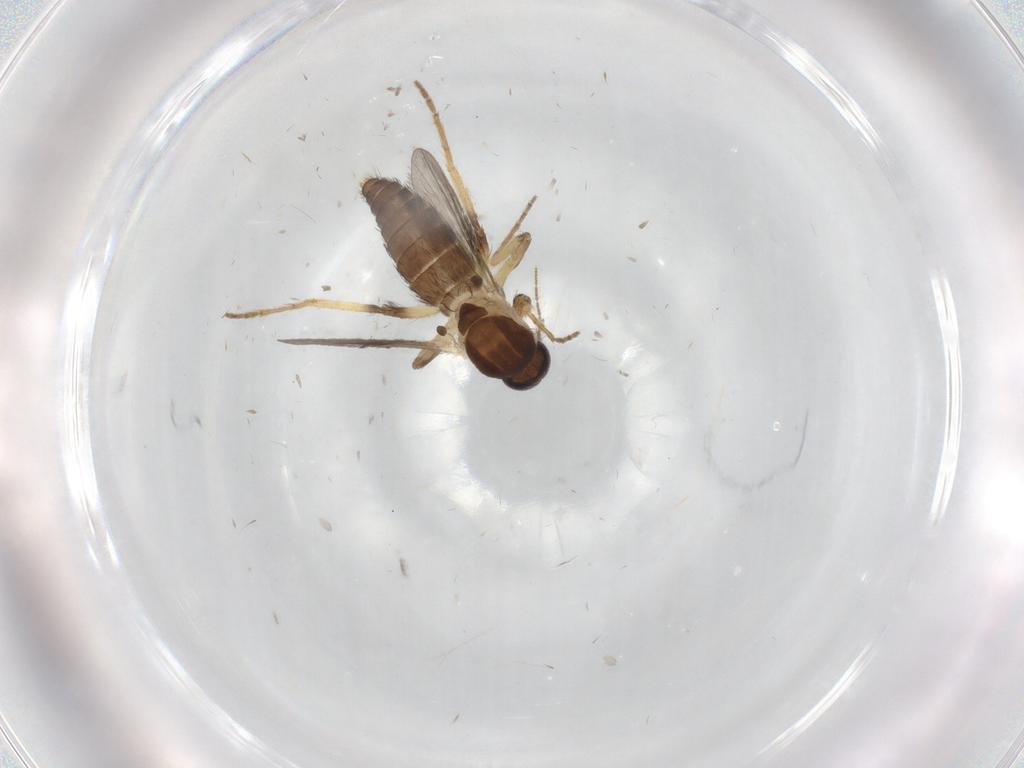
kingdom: Animalia
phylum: Arthropoda
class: Insecta
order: Diptera
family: Ceratopogonidae
